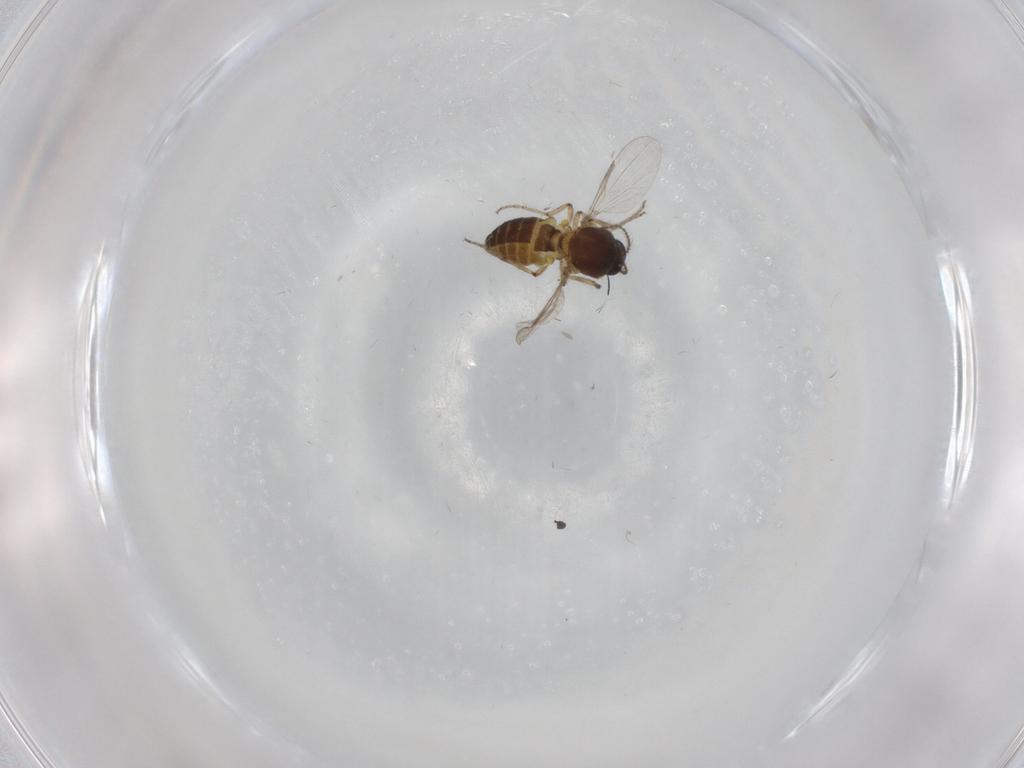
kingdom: Animalia
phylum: Arthropoda
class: Insecta
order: Diptera
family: Ceratopogonidae
